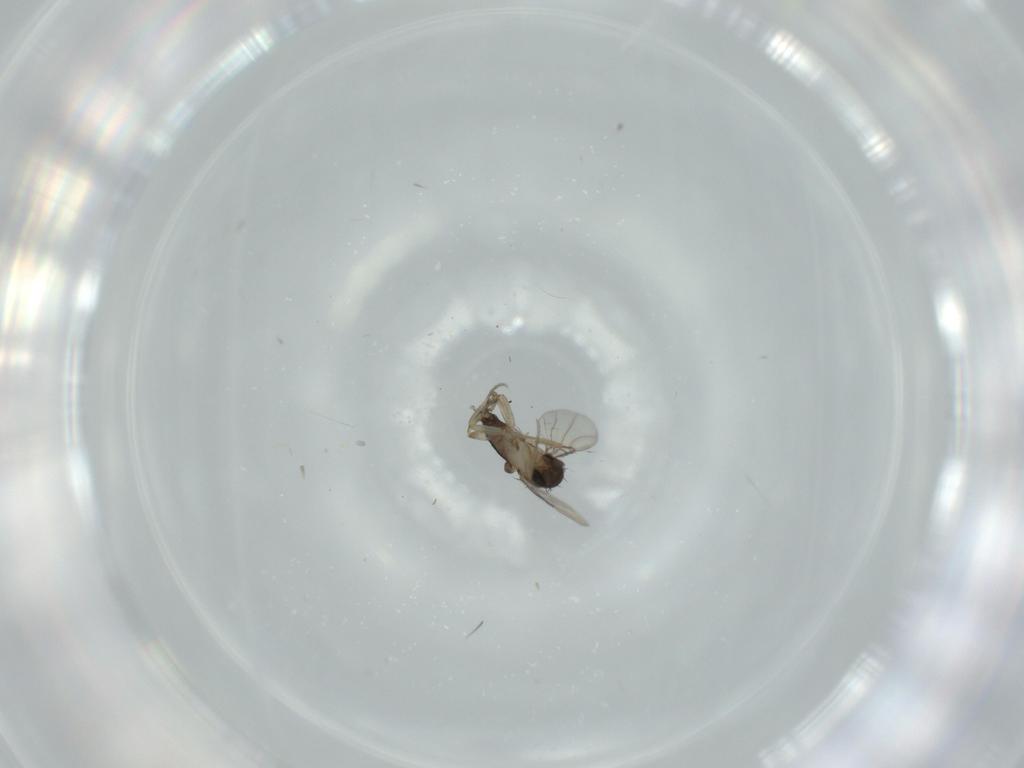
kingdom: Animalia
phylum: Arthropoda
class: Insecta
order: Diptera
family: Phoridae
